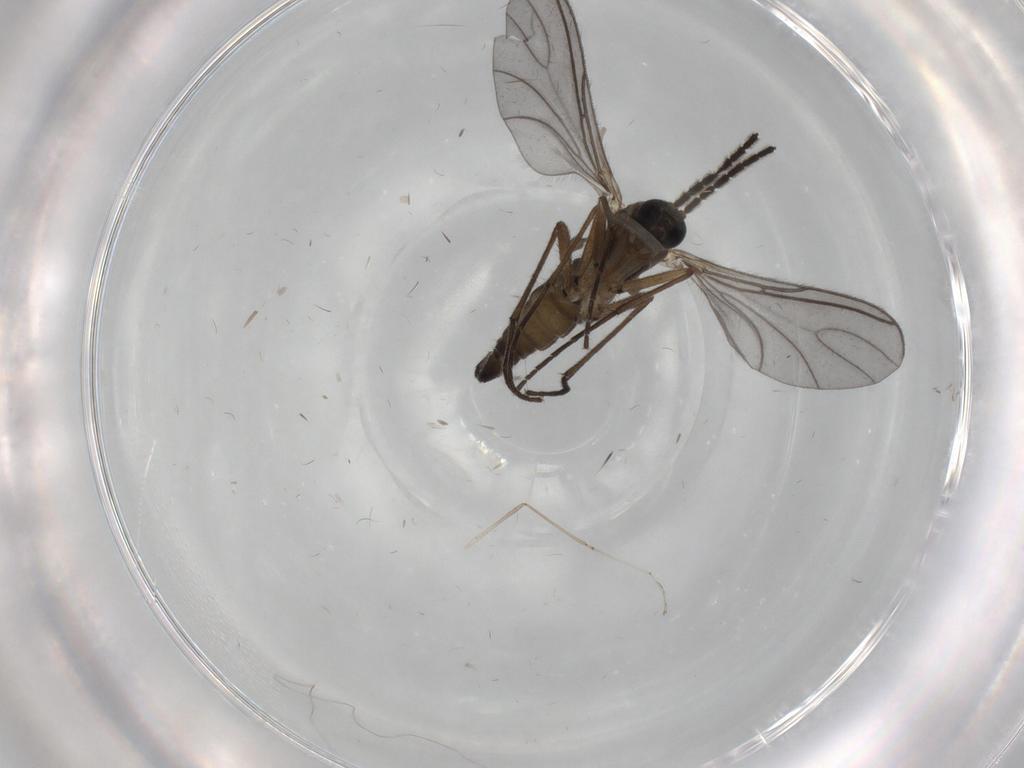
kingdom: Animalia
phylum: Arthropoda
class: Insecta
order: Diptera
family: Sciaridae
